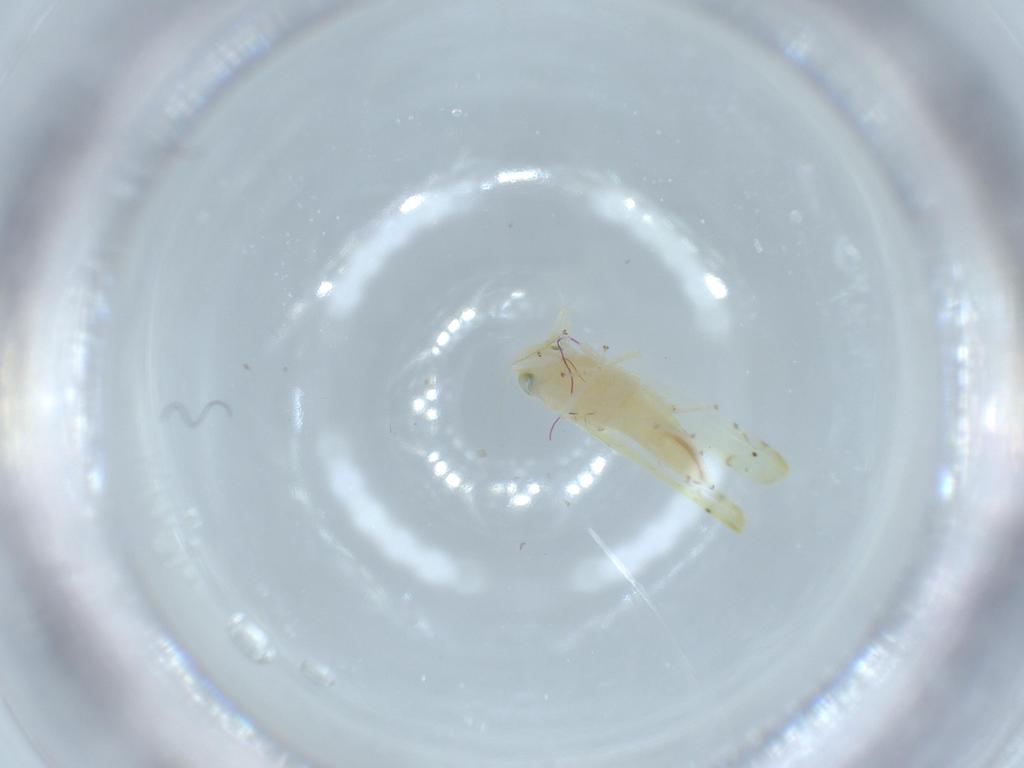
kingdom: Animalia
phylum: Arthropoda
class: Insecta
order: Hemiptera
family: Cicadellidae
